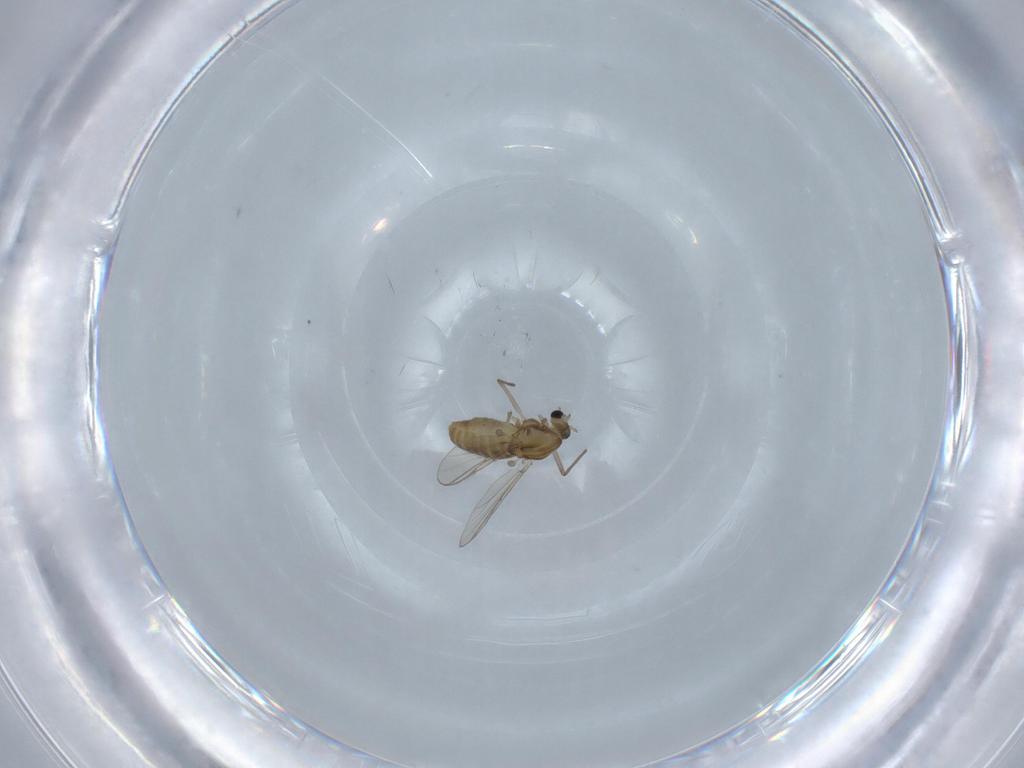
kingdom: Animalia
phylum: Arthropoda
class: Insecta
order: Diptera
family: Chironomidae
